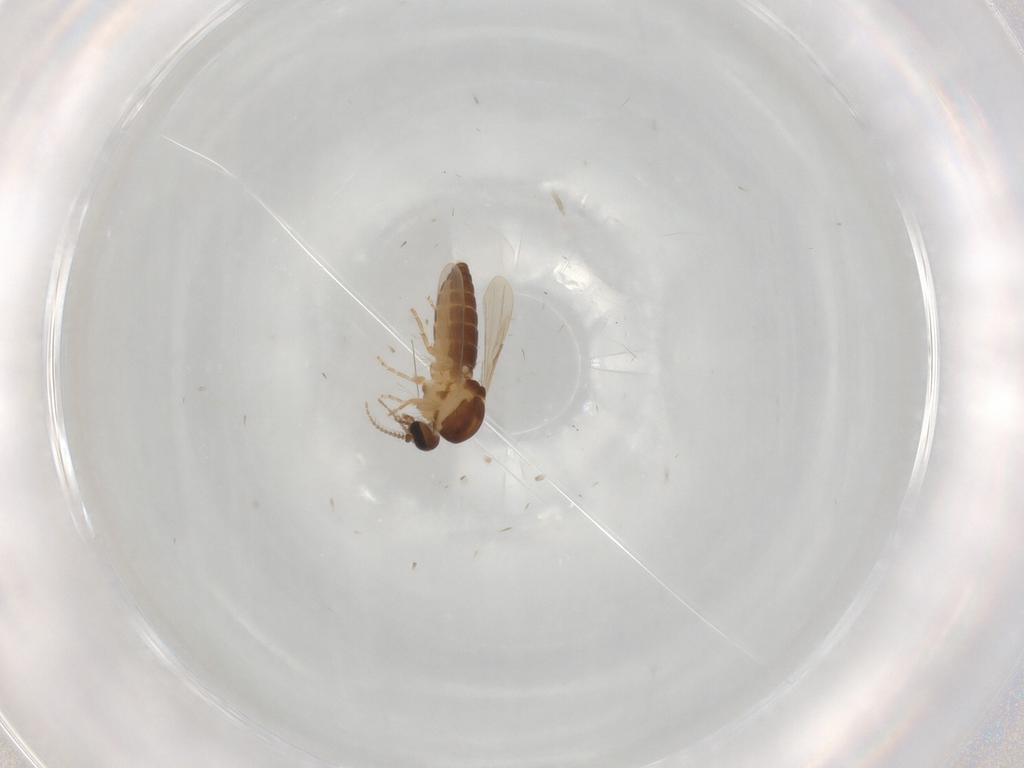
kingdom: Animalia
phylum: Arthropoda
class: Insecta
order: Diptera
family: Ceratopogonidae
